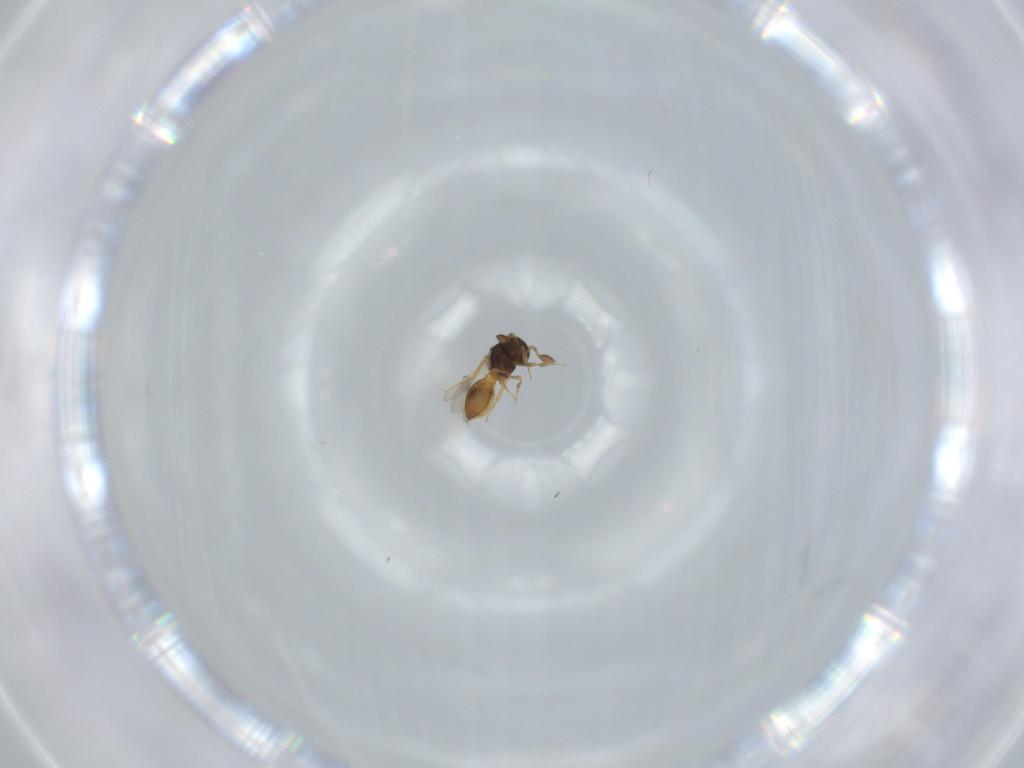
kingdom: Animalia
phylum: Arthropoda
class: Insecta
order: Hymenoptera
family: Scelionidae
